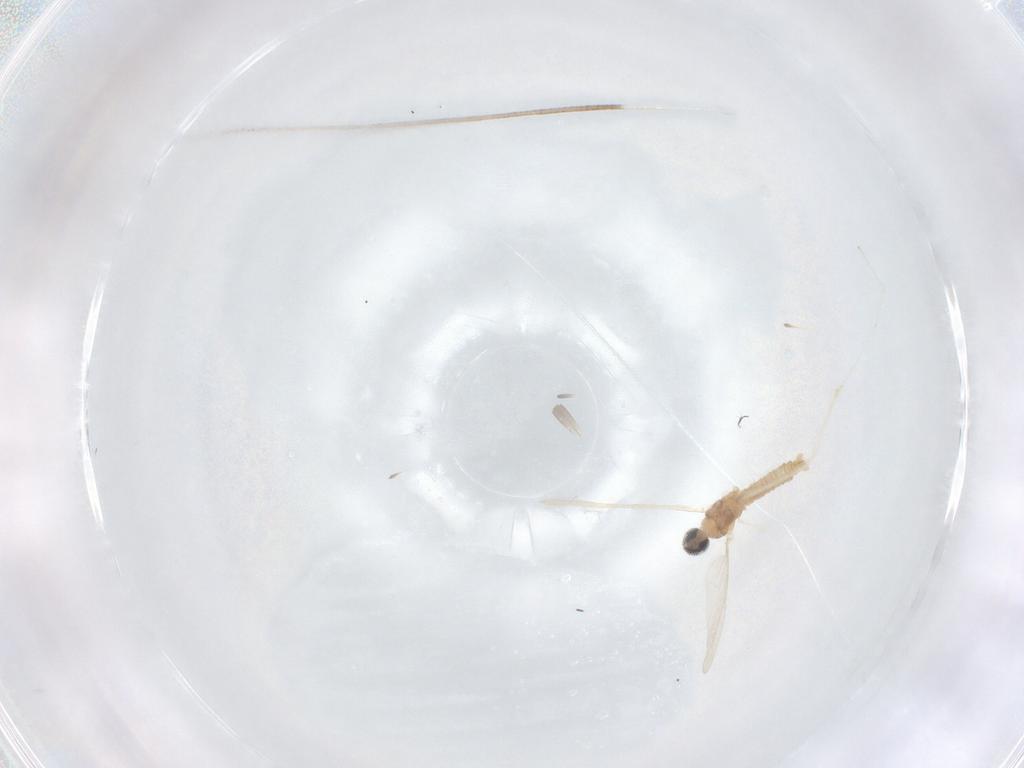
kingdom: Animalia
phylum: Arthropoda
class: Insecta
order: Diptera
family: Cecidomyiidae
